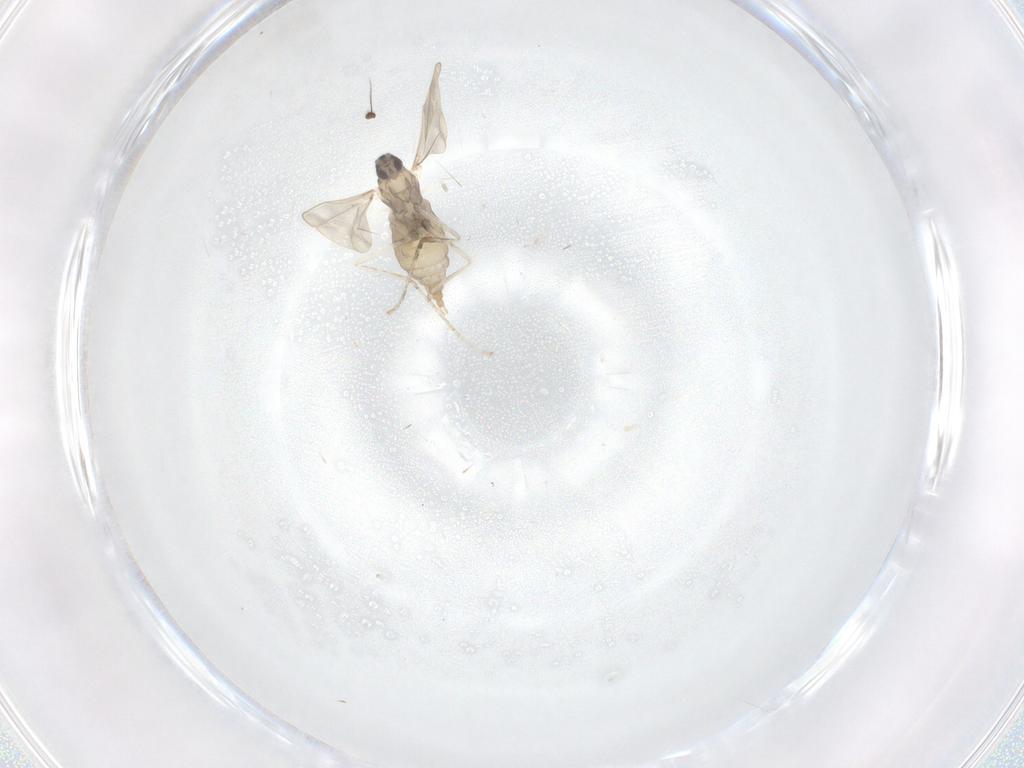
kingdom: Animalia
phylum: Arthropoda
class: Insecta
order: Diptera
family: Cecidomyiidae
